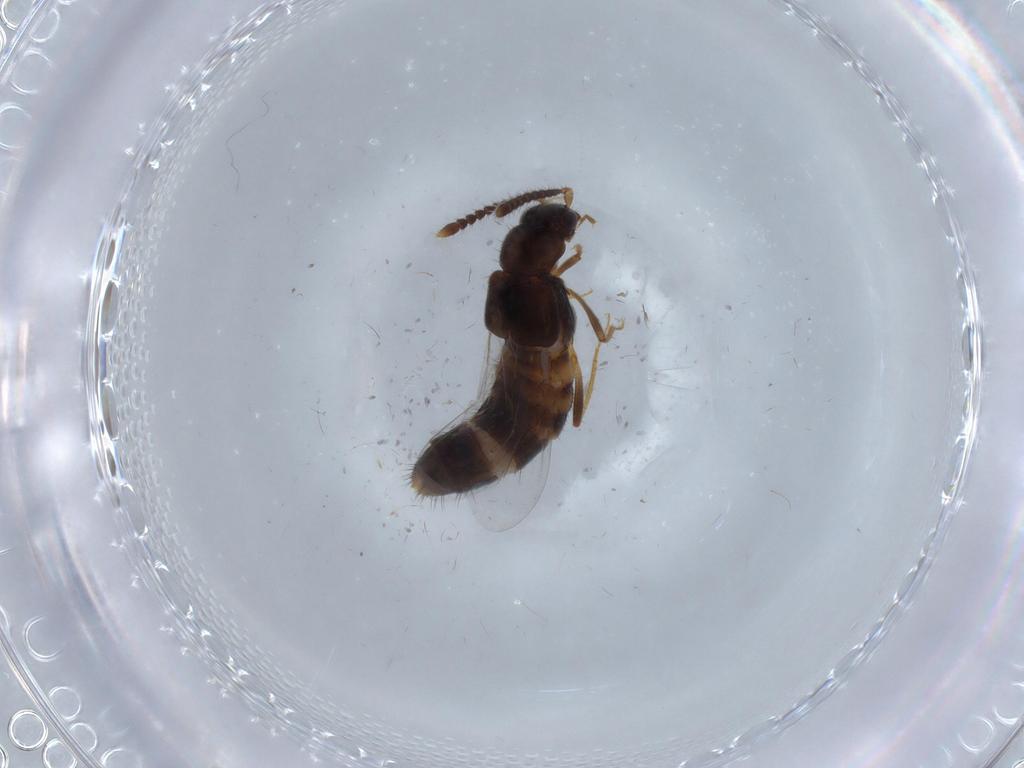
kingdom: Animalia
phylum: Arthropoda
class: Insecta
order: Coleoptera
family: Staphylinidae
